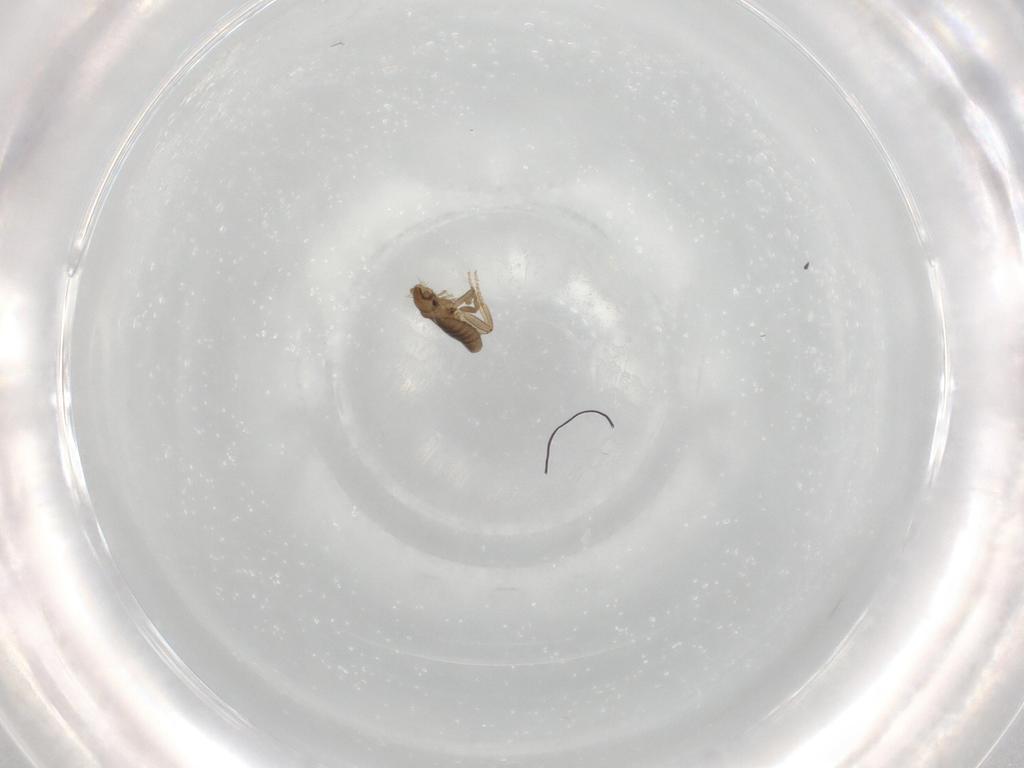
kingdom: Animalia
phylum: Arthropoda
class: Insecta
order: Diptera
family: Phoridae
